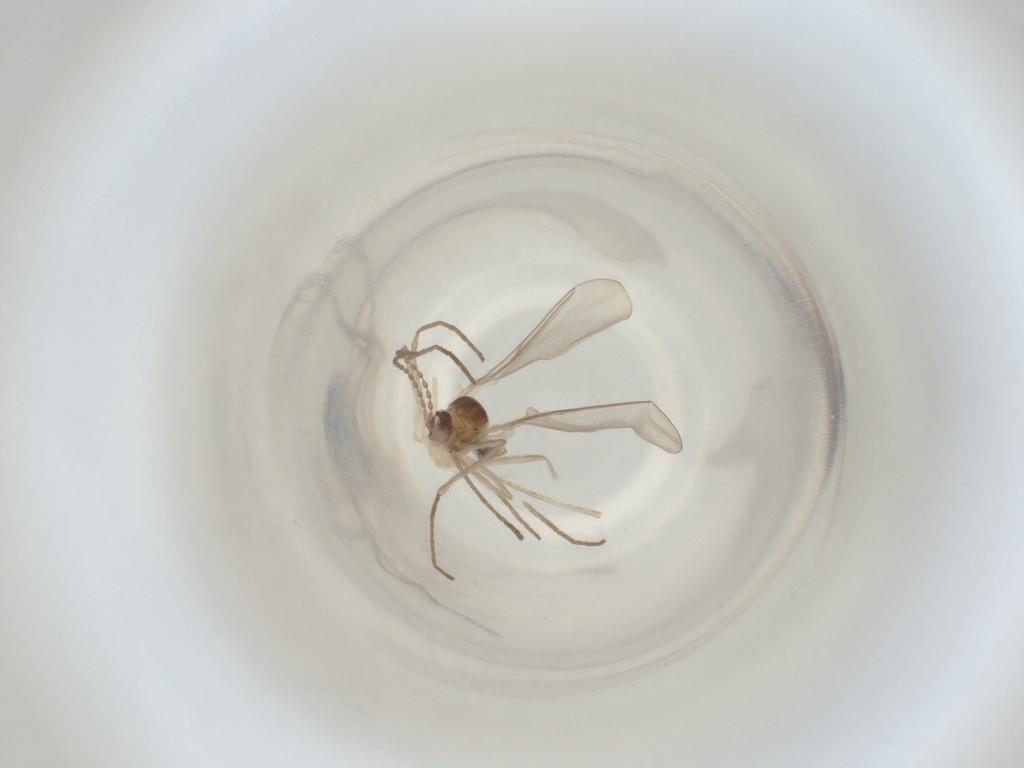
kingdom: Animalia
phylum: Arthropoda
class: Insecta
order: Diptera
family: Cecidomyiidae
